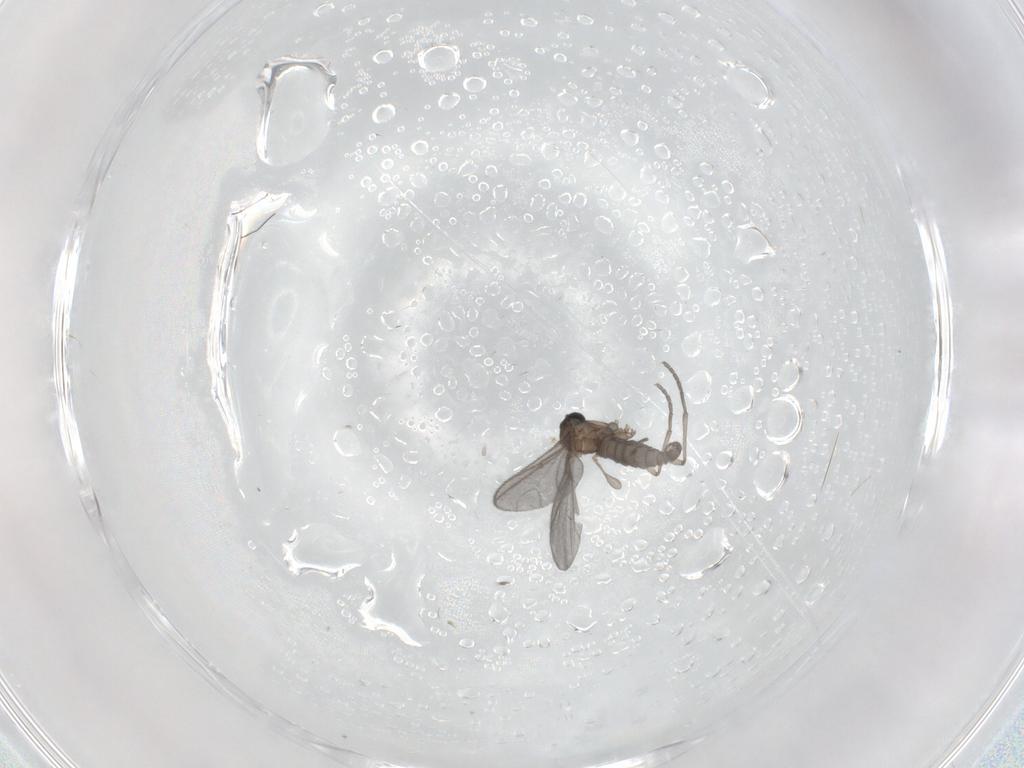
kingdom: Animalia
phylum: Arthropoda
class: Insecta
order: Diptera
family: Sciaridae
